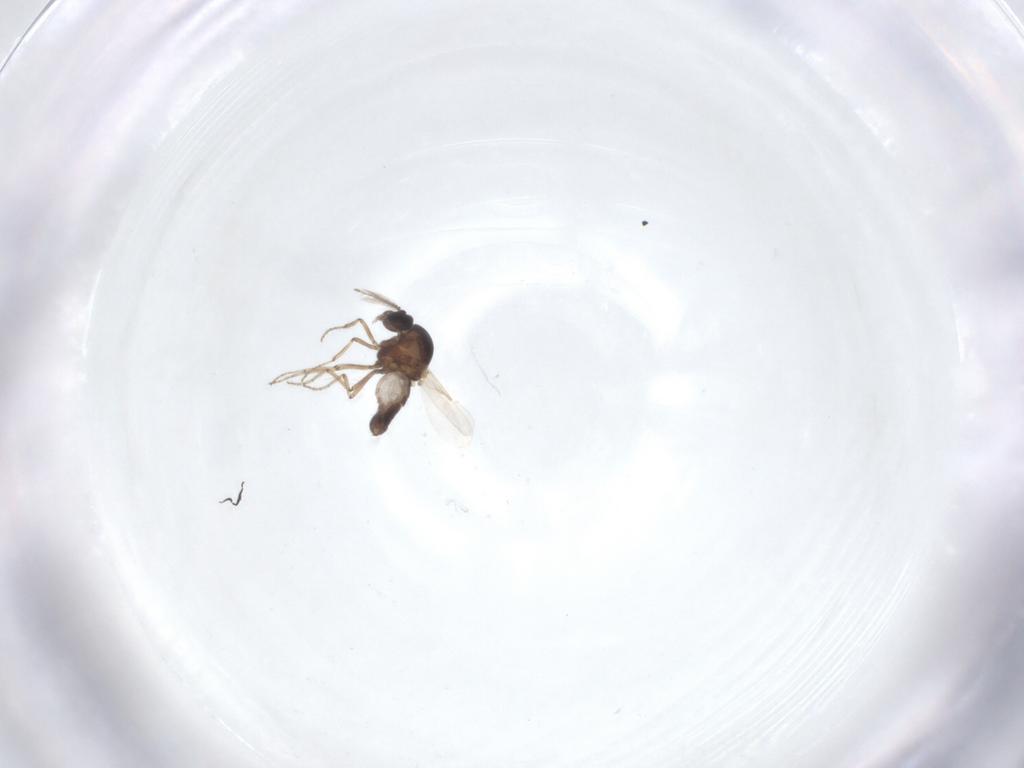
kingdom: Animalia
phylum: Arthropoda
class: Insecta
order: Diptera
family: Ceratopogonidae
